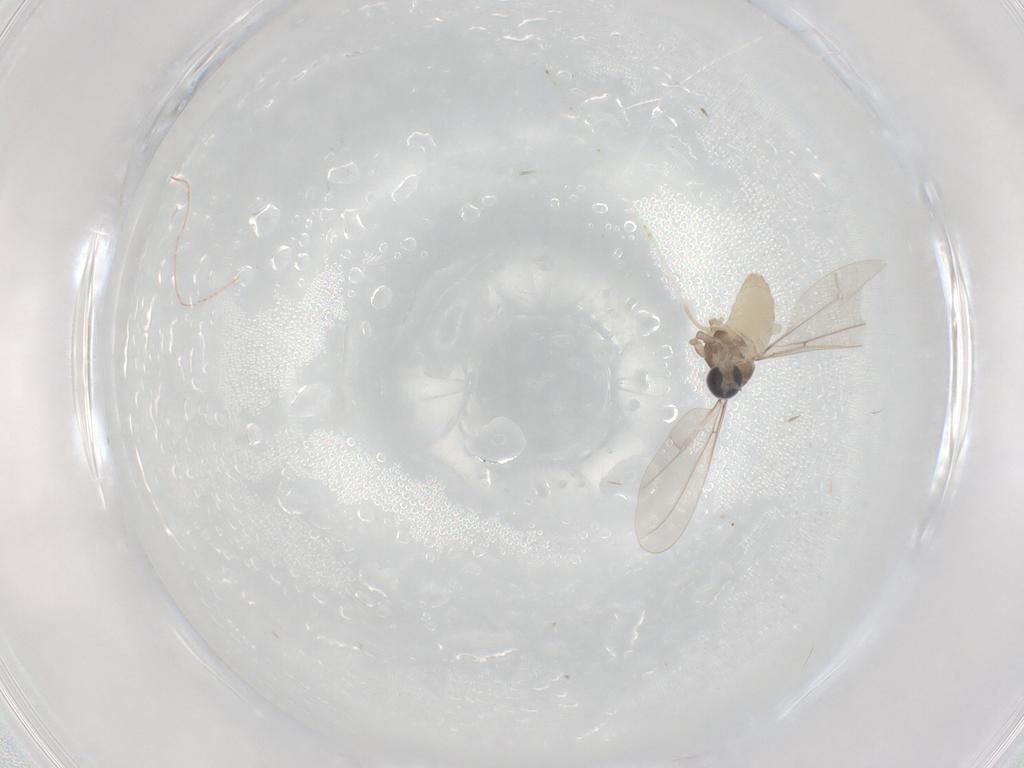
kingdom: Animalia
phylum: Arthropoda
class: Insecta
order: Diptera
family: Cecidomyiidae
